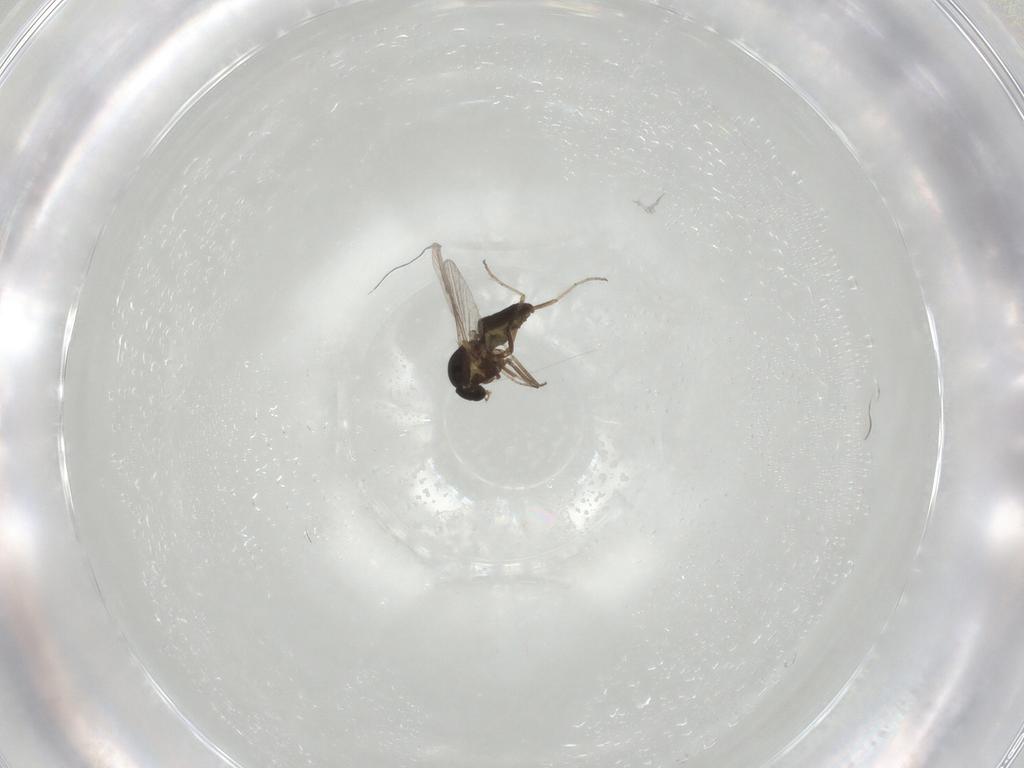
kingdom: Animalia
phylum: Arthropoda
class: Insecta
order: Diptera
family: Ceratopogonidae
